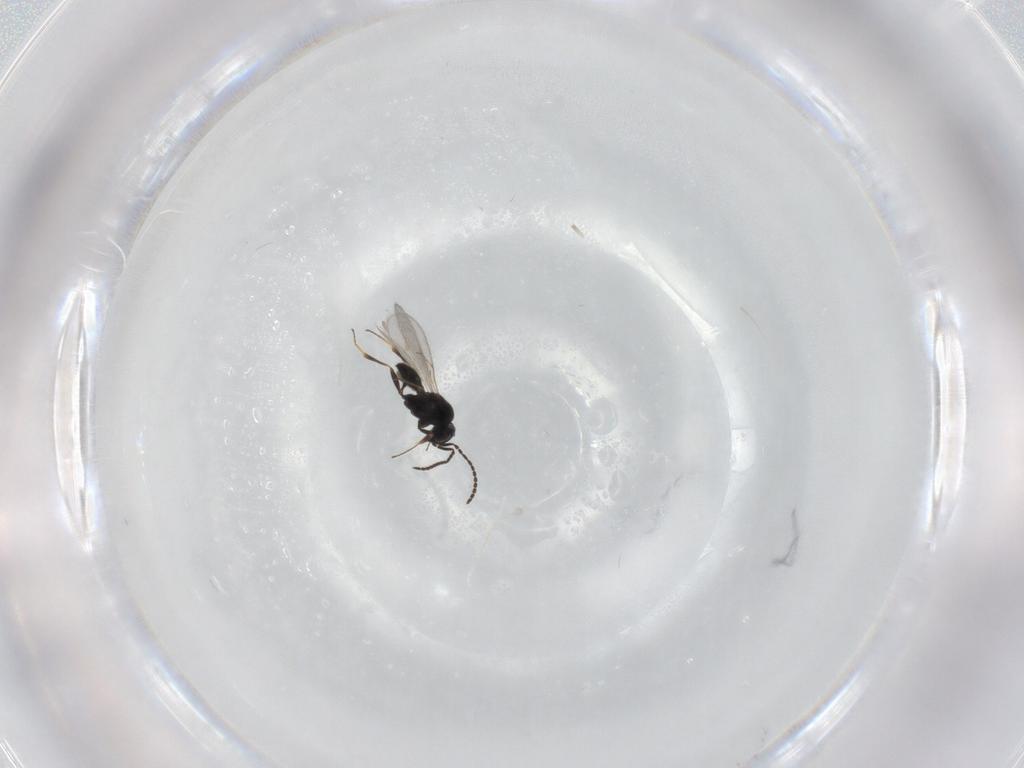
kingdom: Animalia
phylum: Arthropoda
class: Insecta
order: Hymenoptera
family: Scelionidae
